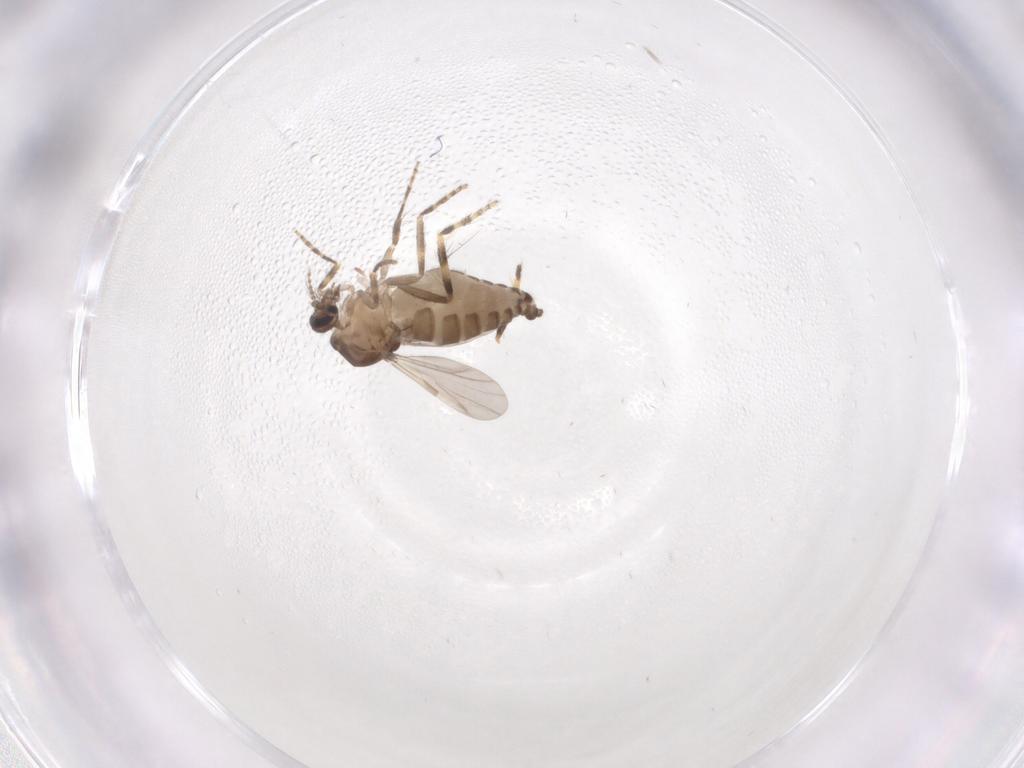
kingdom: Animalia
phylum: Arthropoda
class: Insecta
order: Diptera
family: Ceratopogonidae
